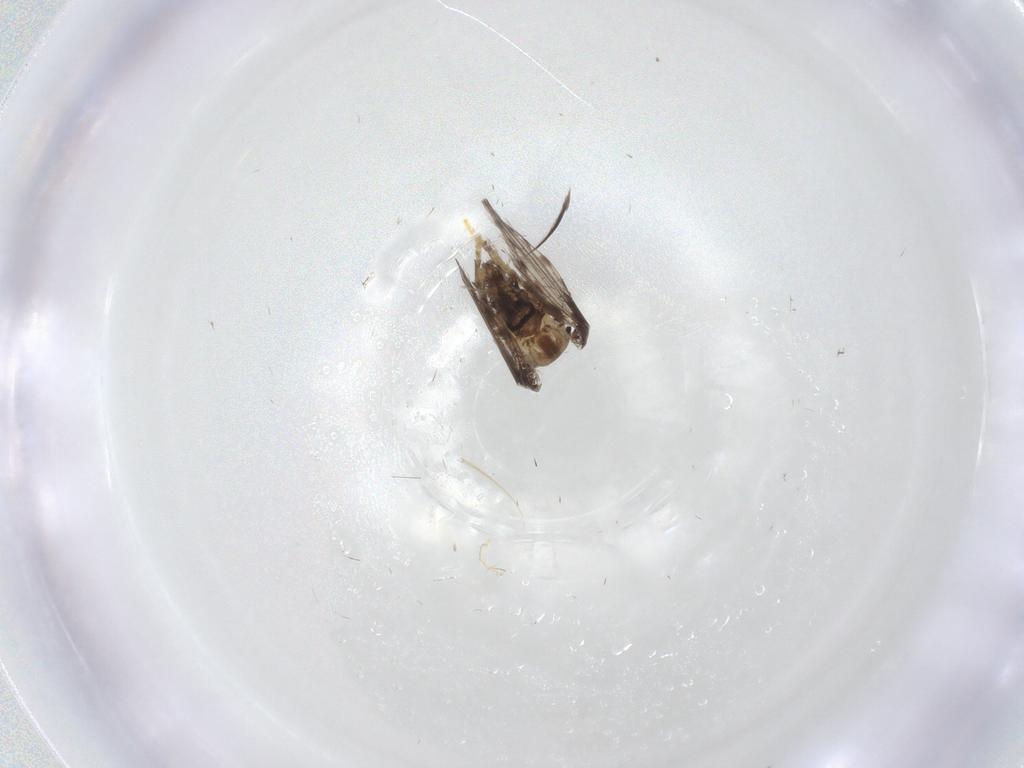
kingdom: Animalia
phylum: Arthropoda
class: Insecta
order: Diptera
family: Psychodidae
